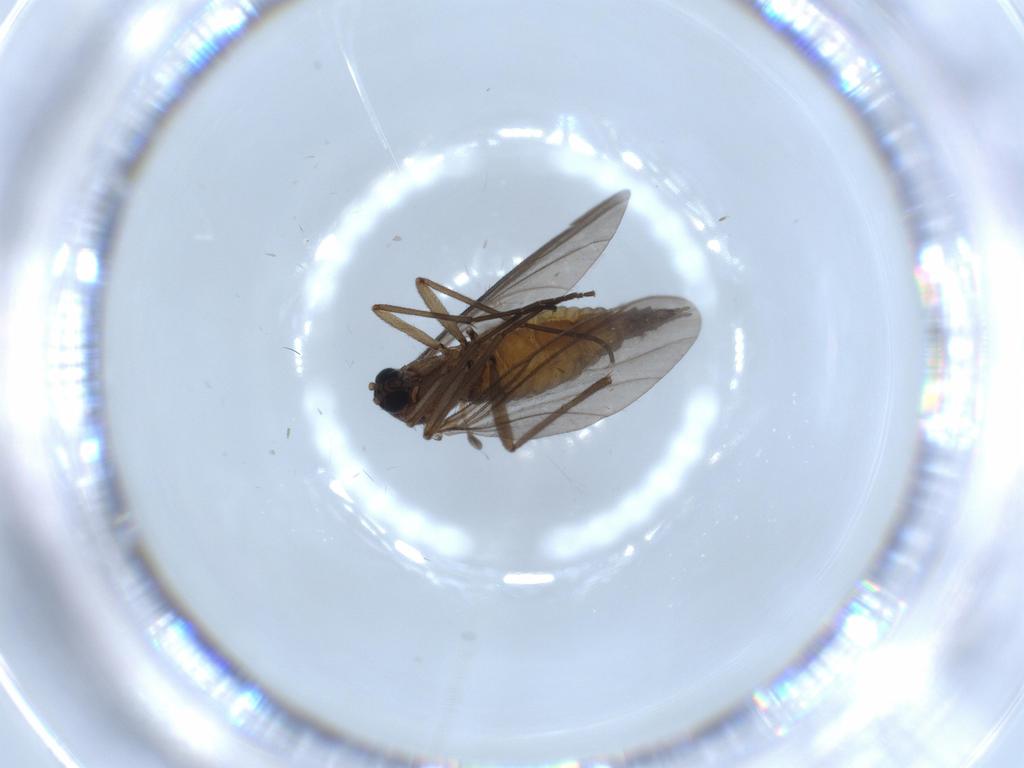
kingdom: Animalia
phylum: Arthropoda
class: Insecta
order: Diptera
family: Sciaridae
